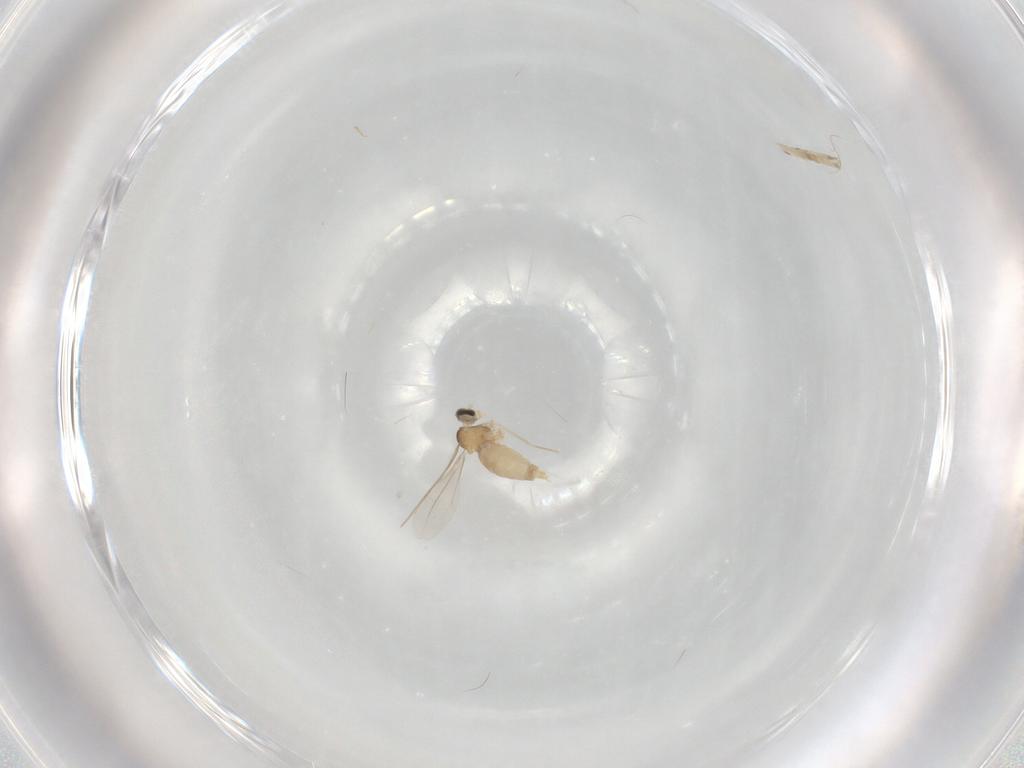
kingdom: Animalia
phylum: Arthropoda
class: Insecta
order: Diptera
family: Cecidomyiidae
